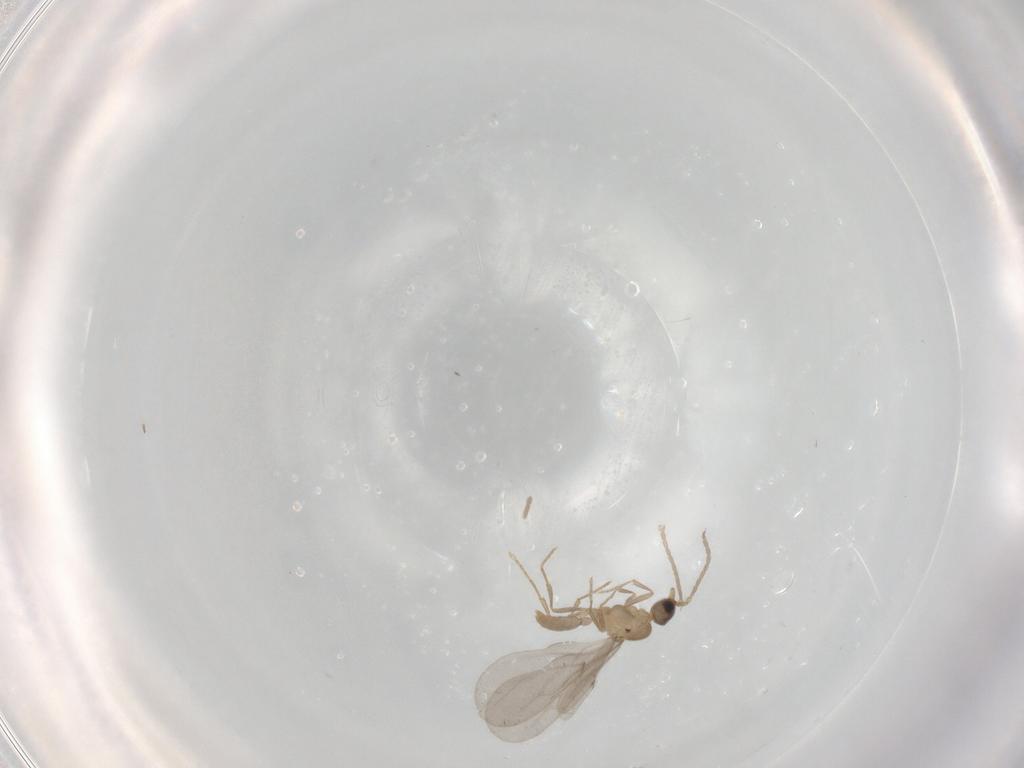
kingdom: Animalia
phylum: Arthropoda
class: Insecta
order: Hymenoptera
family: Formicidae
